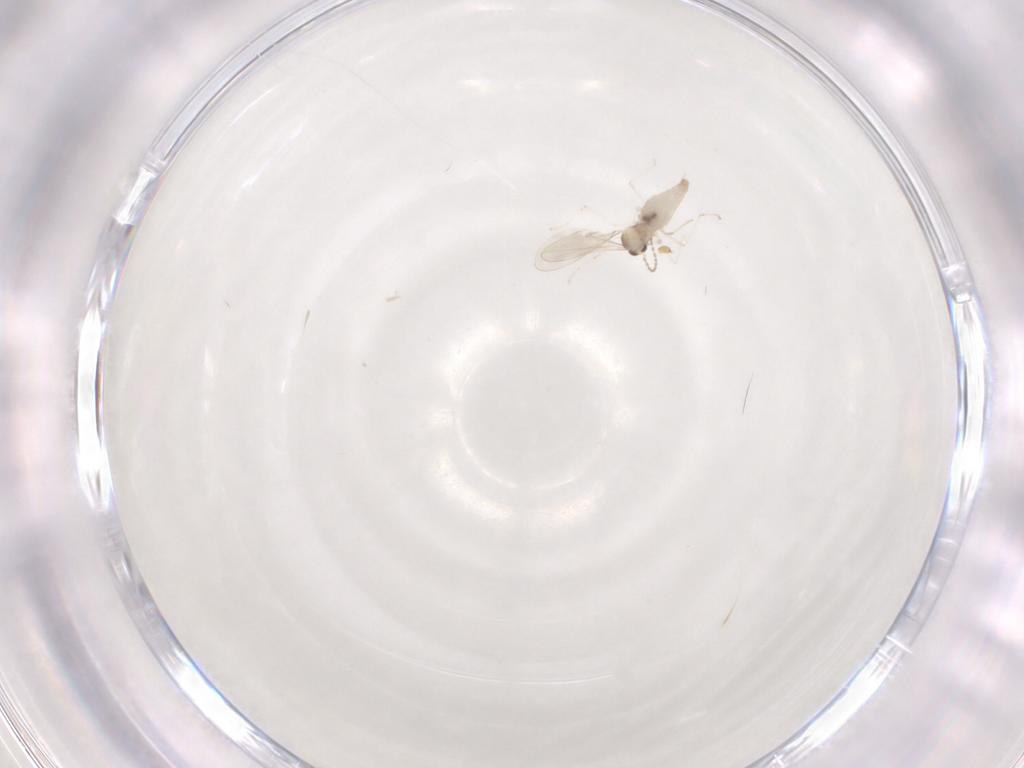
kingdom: Animalia
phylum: Arthropoda
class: Insecta
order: Diptera
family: Cecidomyiidae
